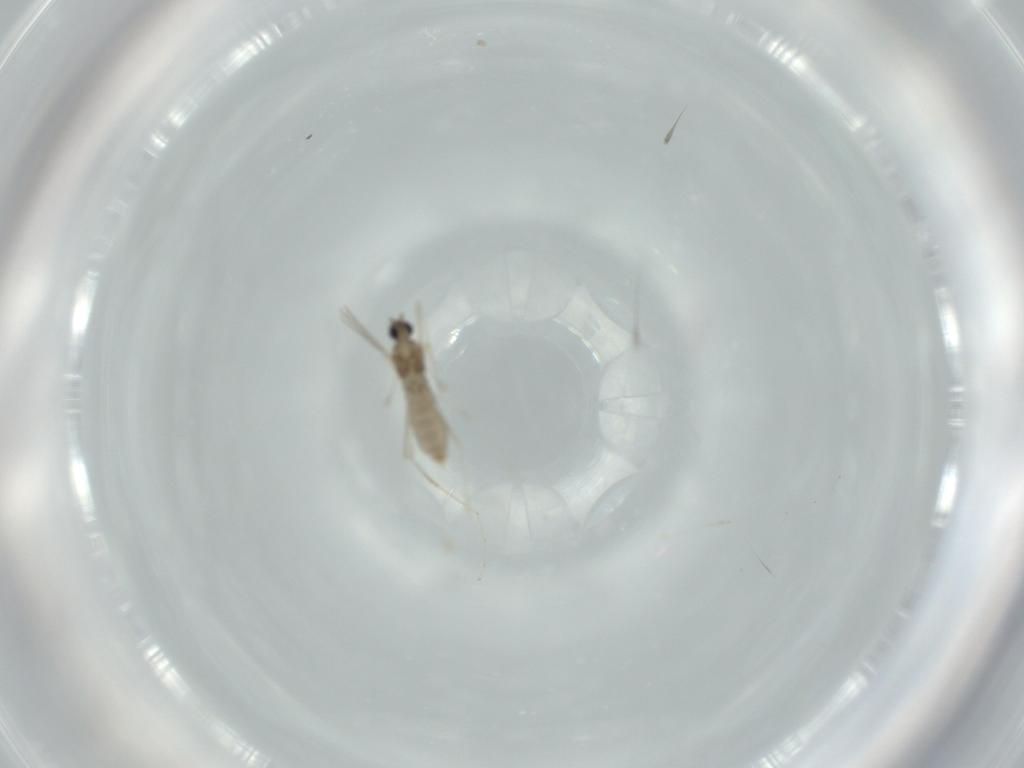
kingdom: Animalia
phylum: Arthropoda
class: Insecta
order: Diptera
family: Cecidomyiidae
